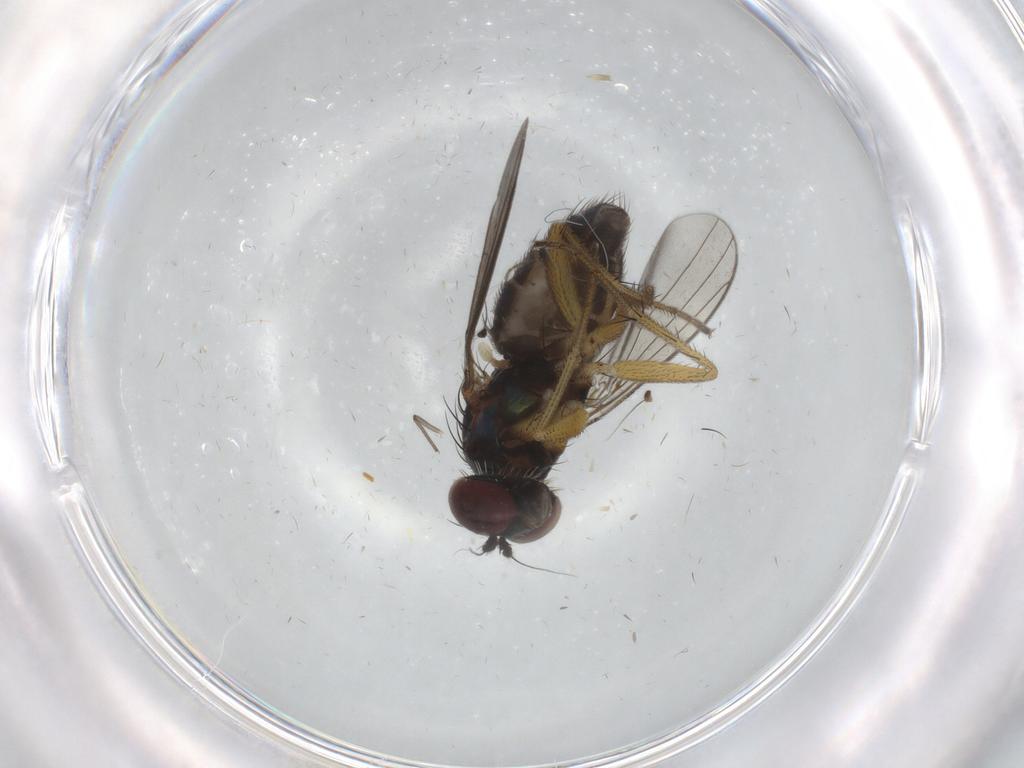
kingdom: Animalia
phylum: Arthropoda
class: Insecta
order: Diptera
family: Dolichopodidae
